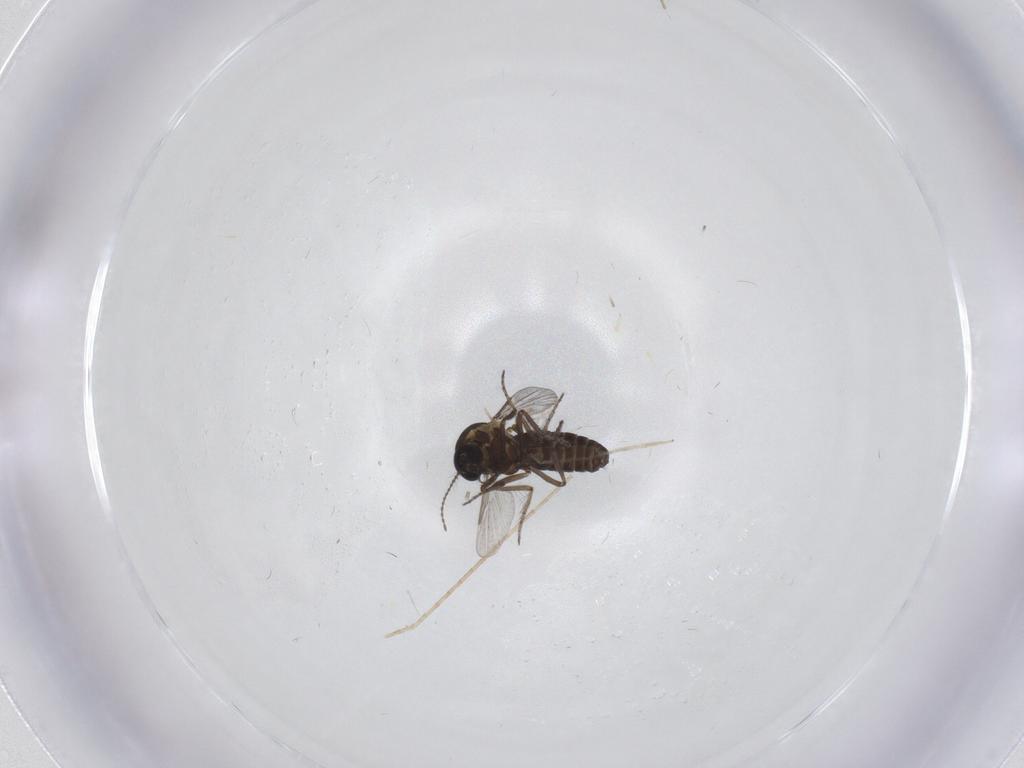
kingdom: Animalia
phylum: Arthropoda
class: Insecta
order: Diptera
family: Ceratopogonidae
